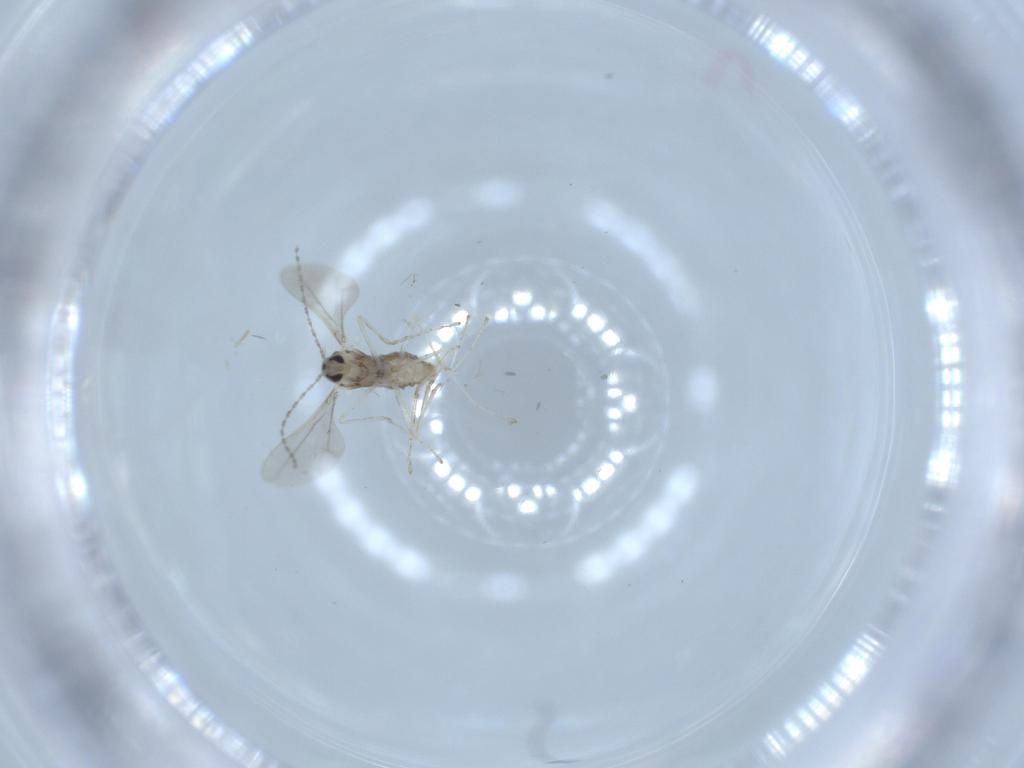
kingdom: Animalia
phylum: Arthropoda
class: Insecta
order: Diptera
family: Cecidomyiidae
